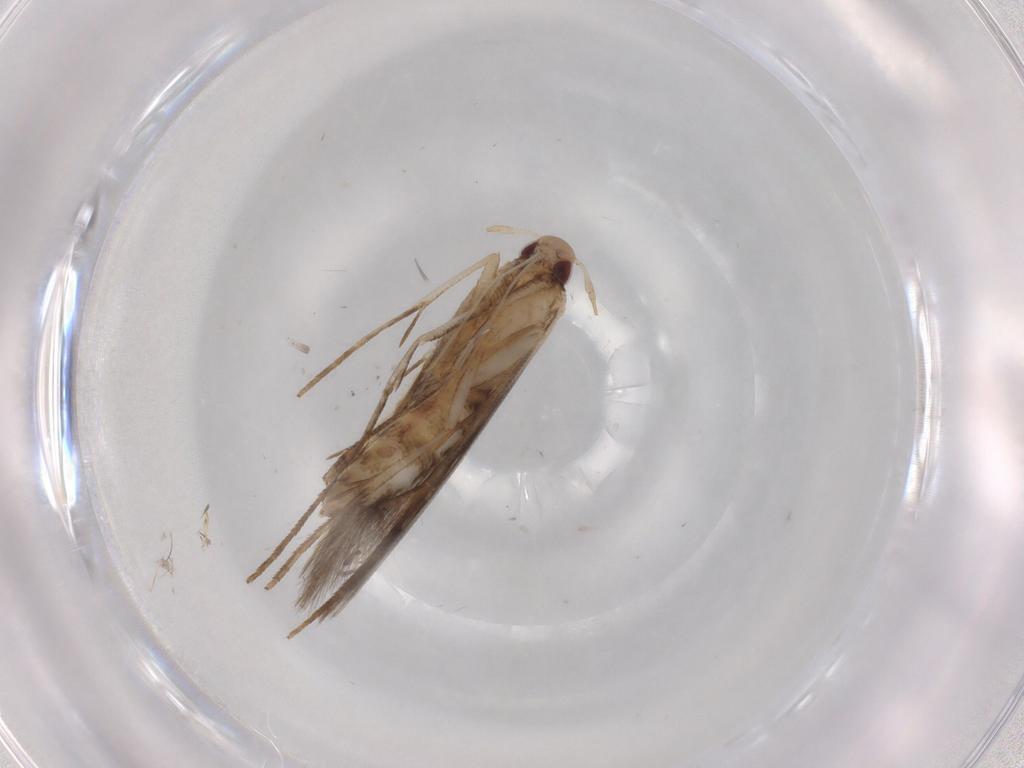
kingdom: Animalia
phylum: Arthropoda
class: Insecta
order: Lepidoptera
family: Cosmopterigidae
